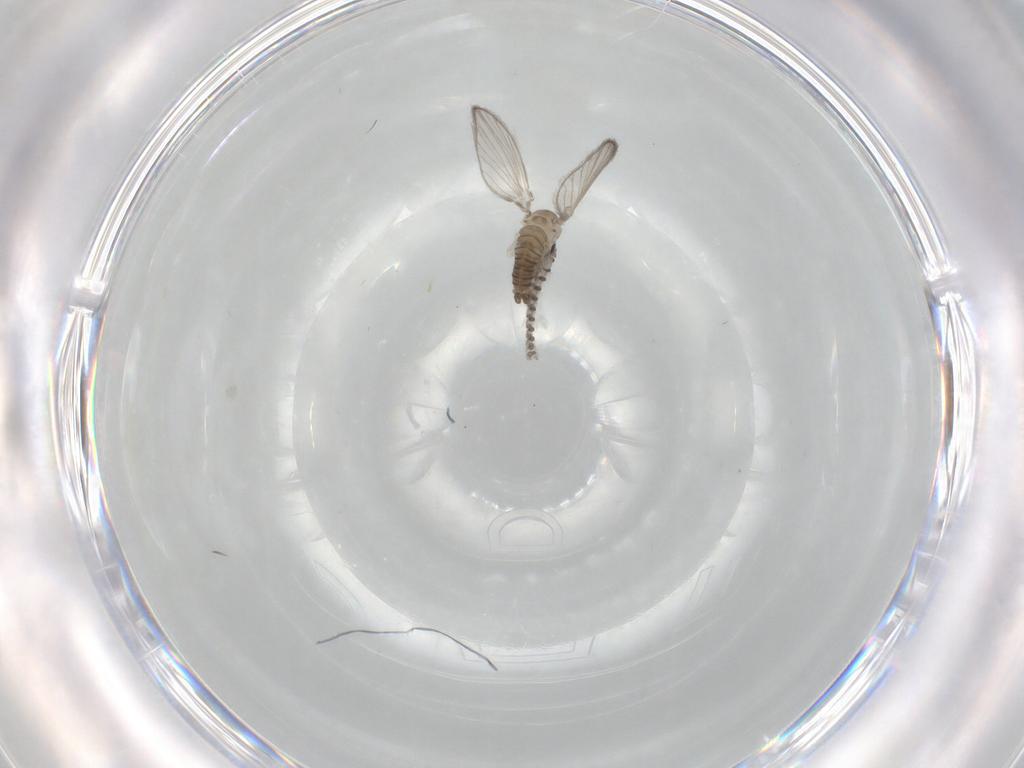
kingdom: Animalia
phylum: Arthropoda
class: Insecta
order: Diptera
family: Psychodidae
